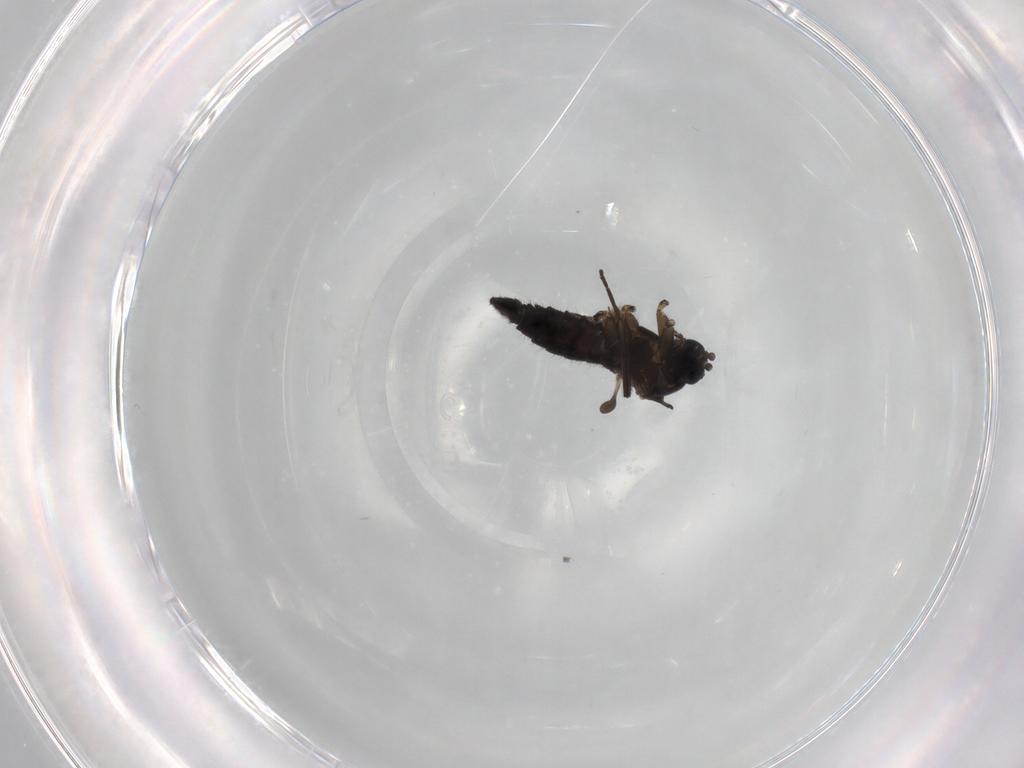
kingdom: Animalia
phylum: Arthropoda
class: Insecta
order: Diptera
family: Sciaridae
